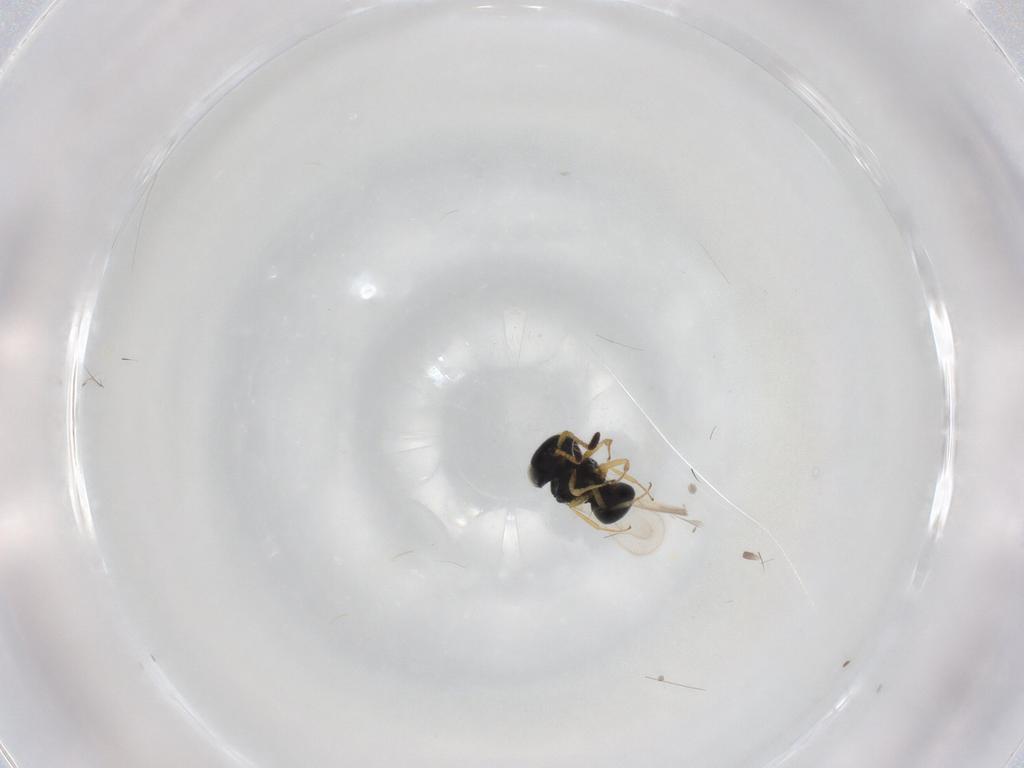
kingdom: Animalia
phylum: Arthropoda
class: Insecta
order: Hymenoptera
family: Scelionidae
